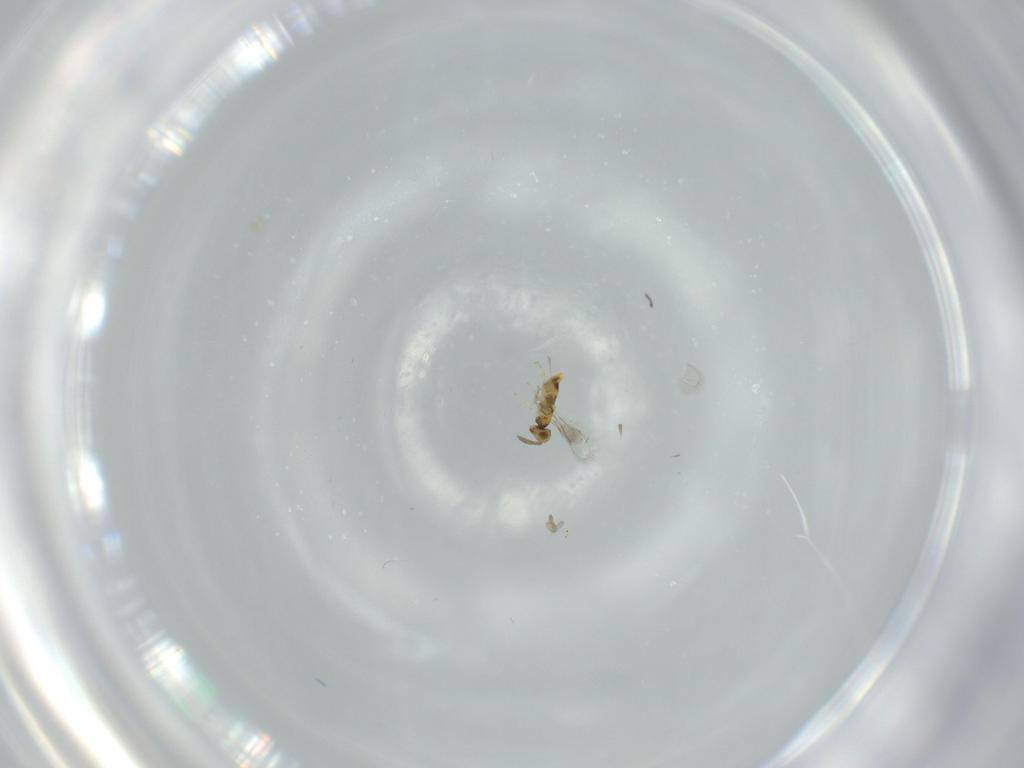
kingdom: Animalia
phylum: Arthropoda
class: Insecta
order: Hymenoptera
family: Aphelinidae
